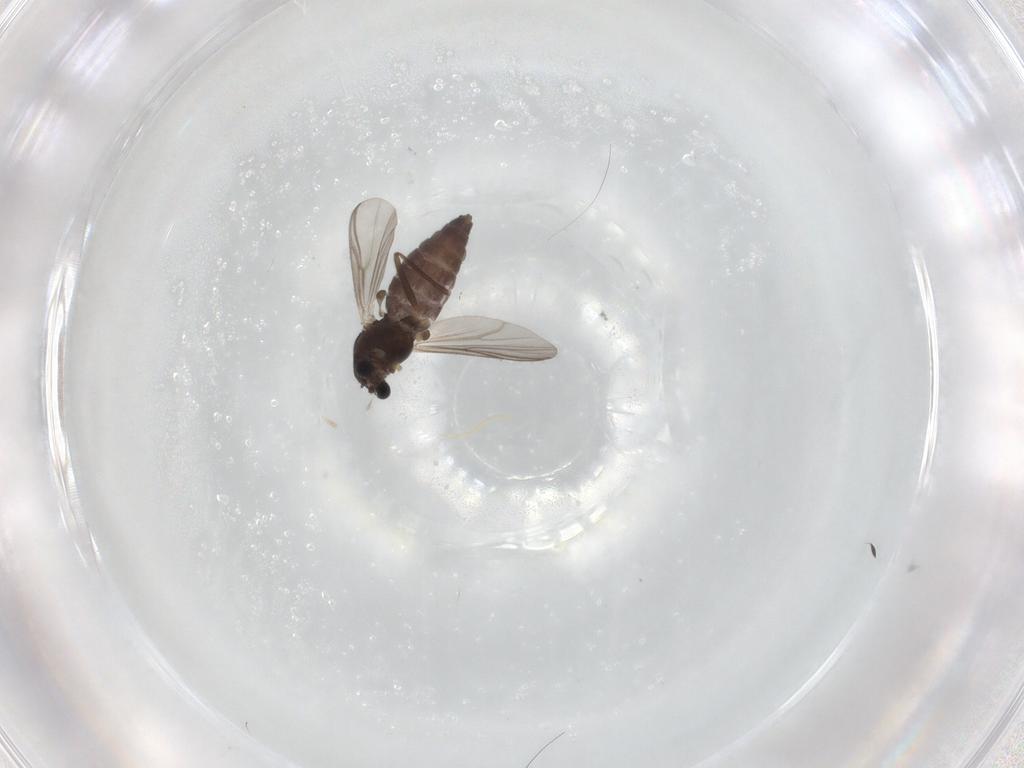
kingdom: Animalia
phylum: Arthropoda
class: Insecta
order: Diptera
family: Chironomidae
